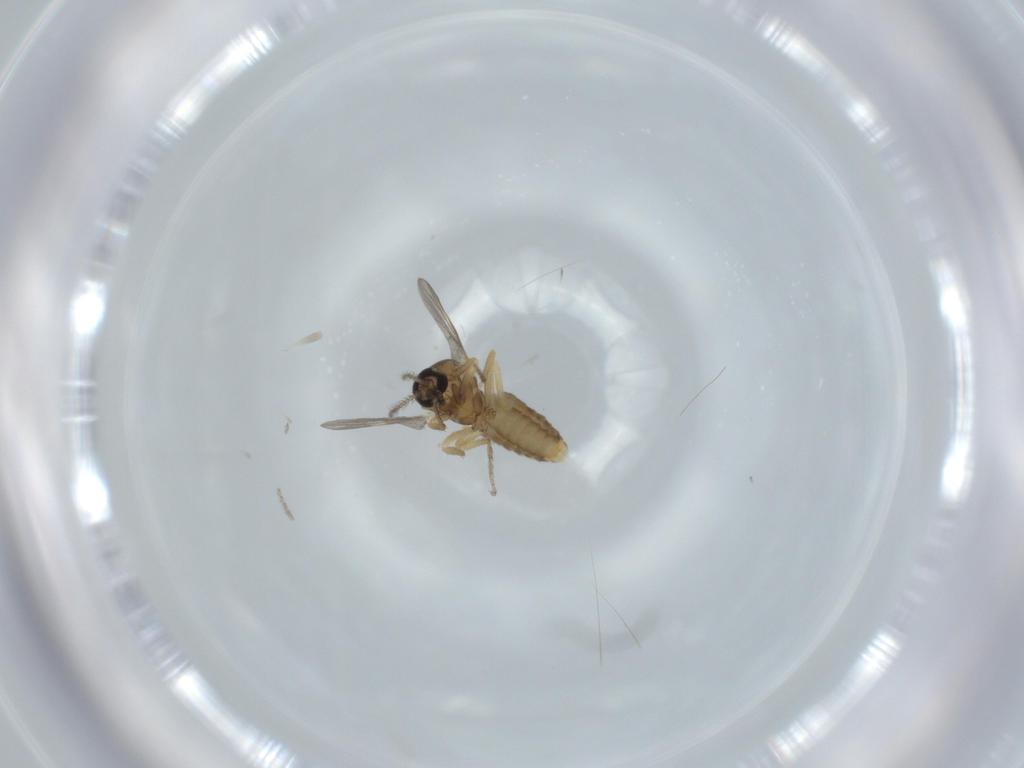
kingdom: Animalia
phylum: Arthropoda
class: Insecta
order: Diptera
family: Ceratopogonidae
